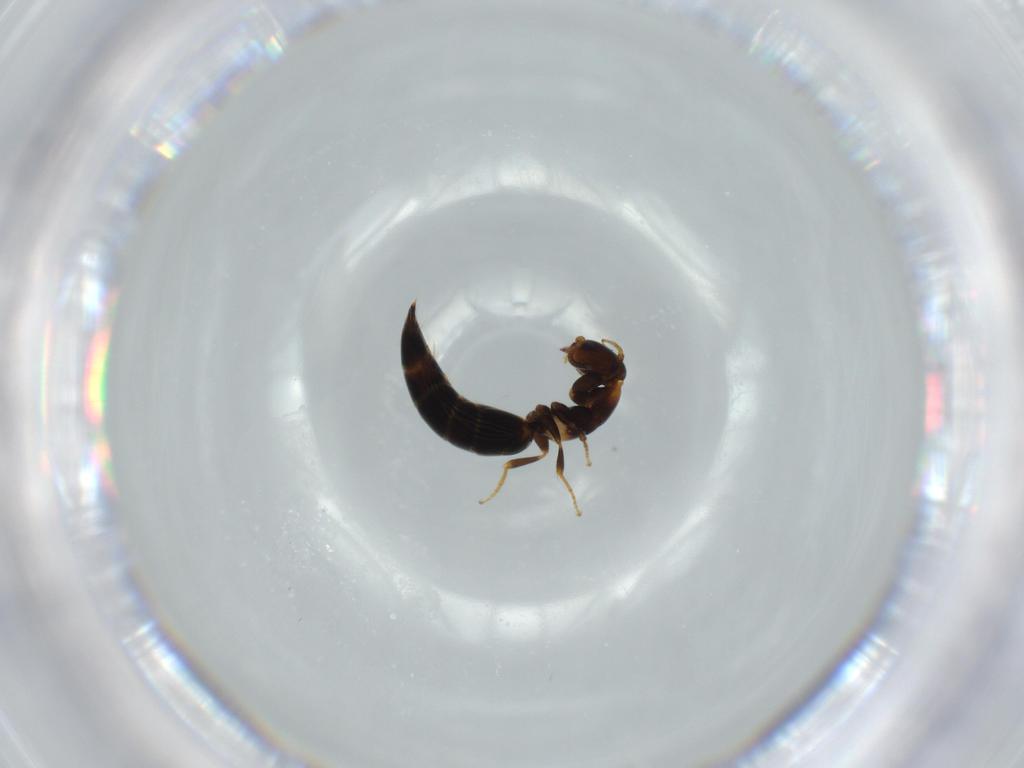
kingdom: Animalia
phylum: Arthropoda
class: Insecta
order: Hymenoptera
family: Bethylidae
